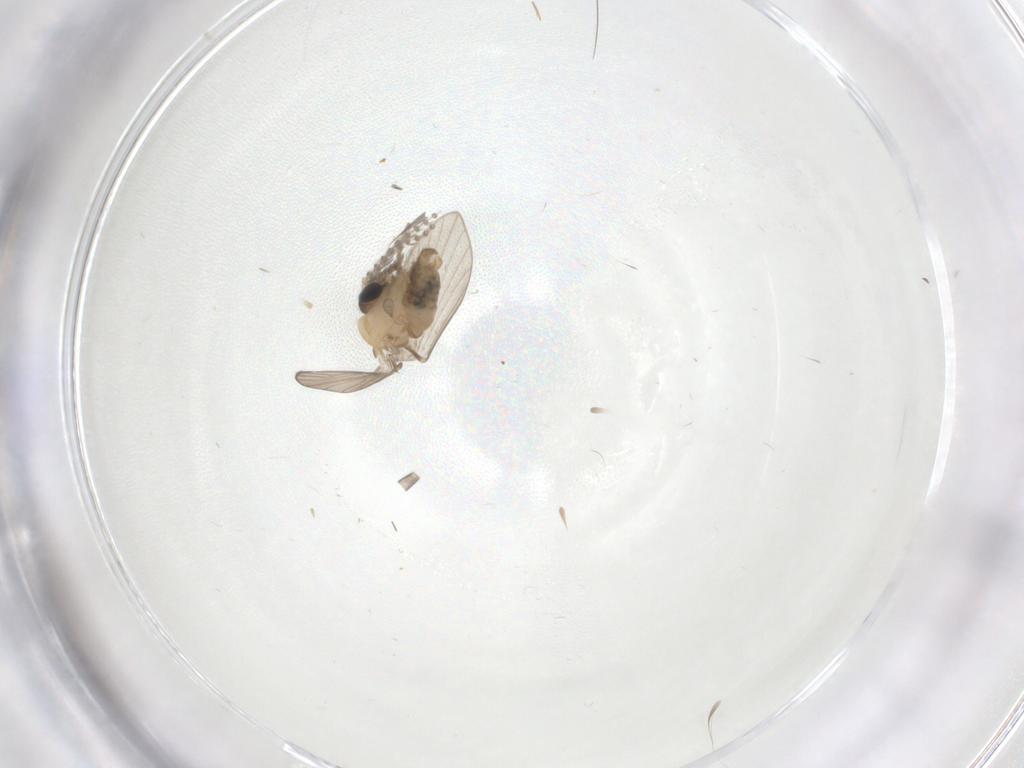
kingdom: Animalia
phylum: Arthropoda
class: Insecta
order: Diptera
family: Psychodidae
